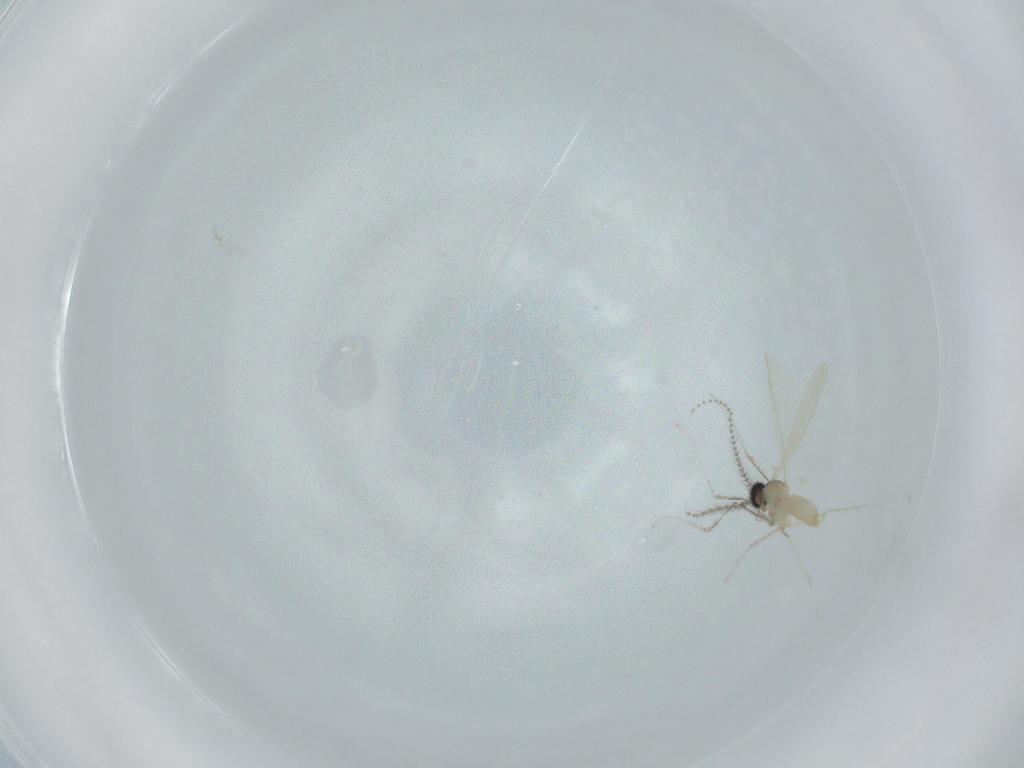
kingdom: Animalia
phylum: Arthropoda
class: Insecta
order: Diptera
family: Cecidomyiidae
